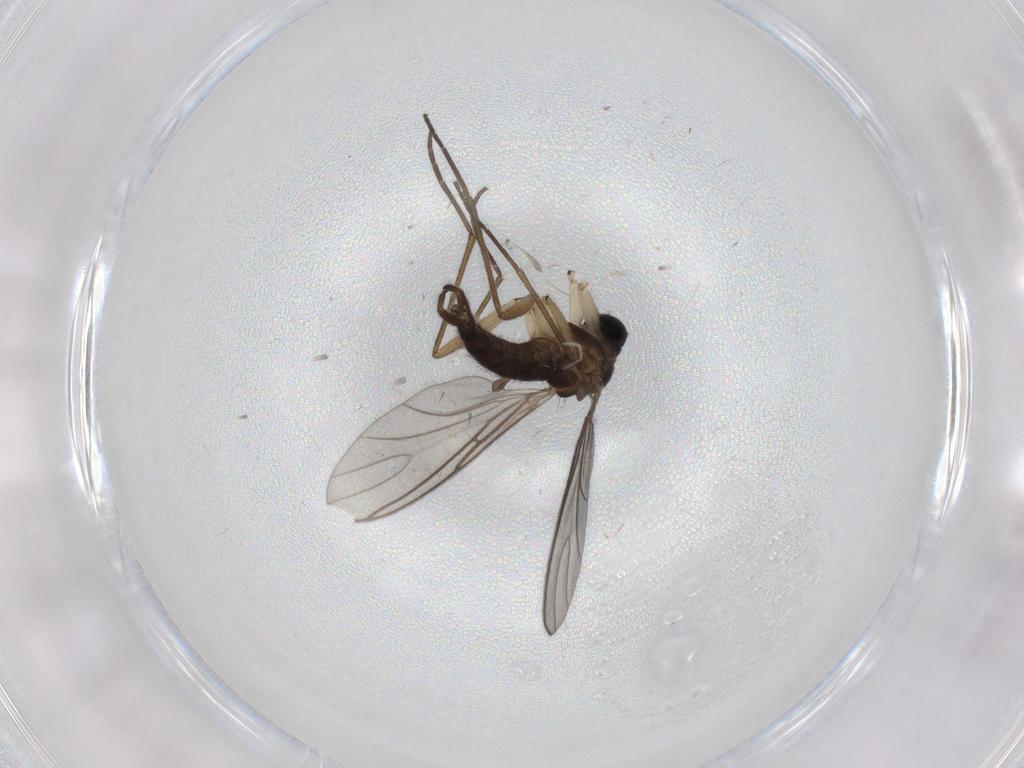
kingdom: Animalia
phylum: Arthropoda
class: Insecta
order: Diptera
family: Sciaridae
